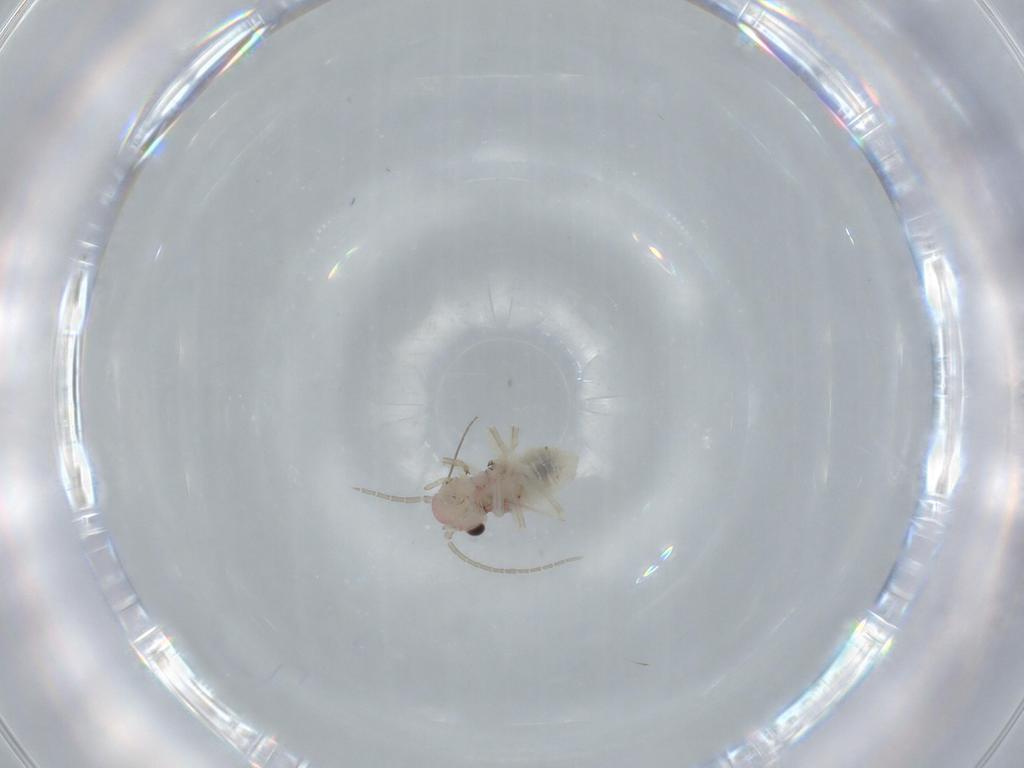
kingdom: Animalia
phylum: Arthropoda
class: Insecta
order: Psocodea
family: Amphipsocidae
